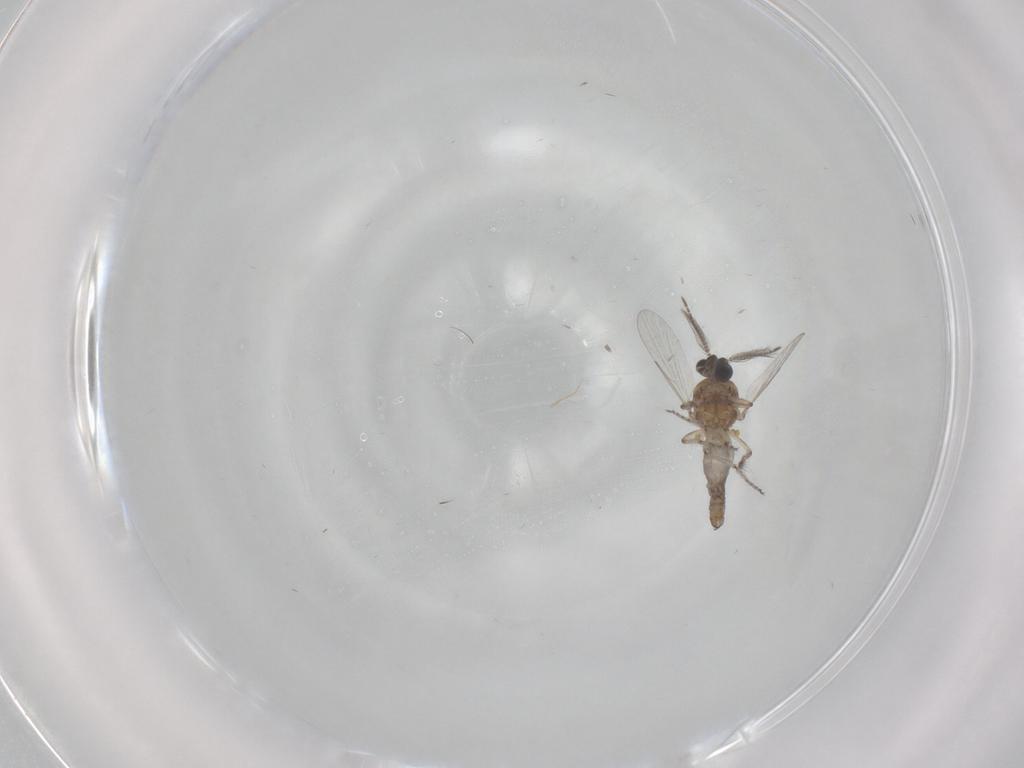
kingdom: Animalia
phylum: Arthropoda
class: Insecta
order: Diptera
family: Ceratopogonidae
